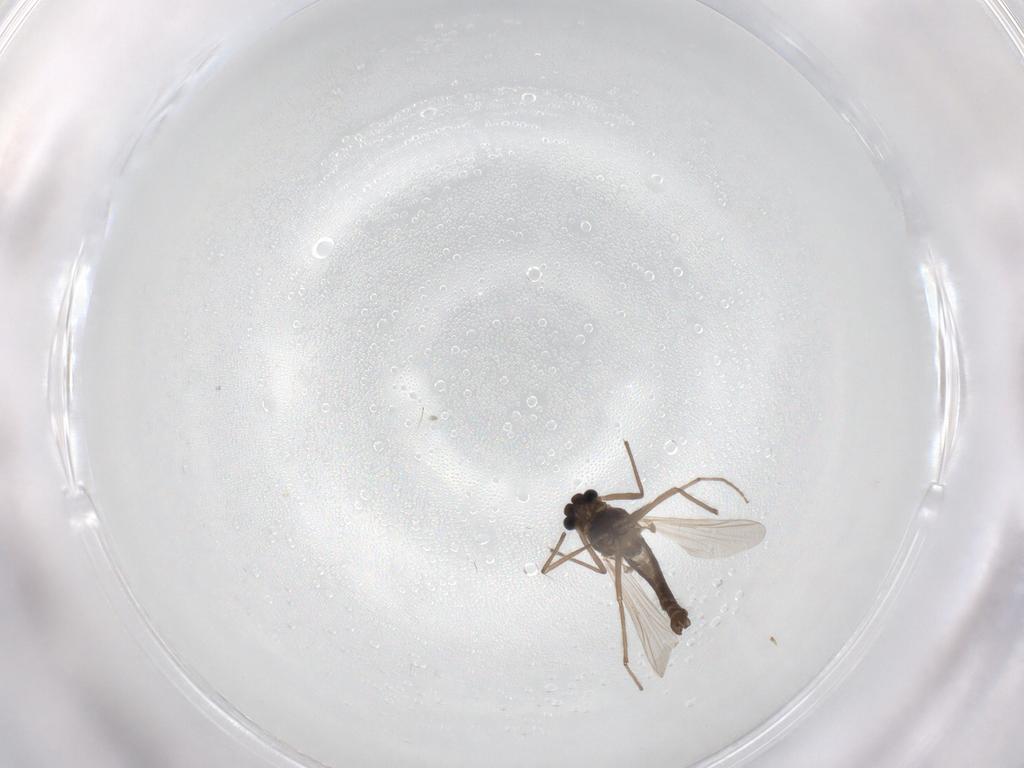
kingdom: Animalia
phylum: Arthropoda
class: Insecta
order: Diptera
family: Chironomidae
